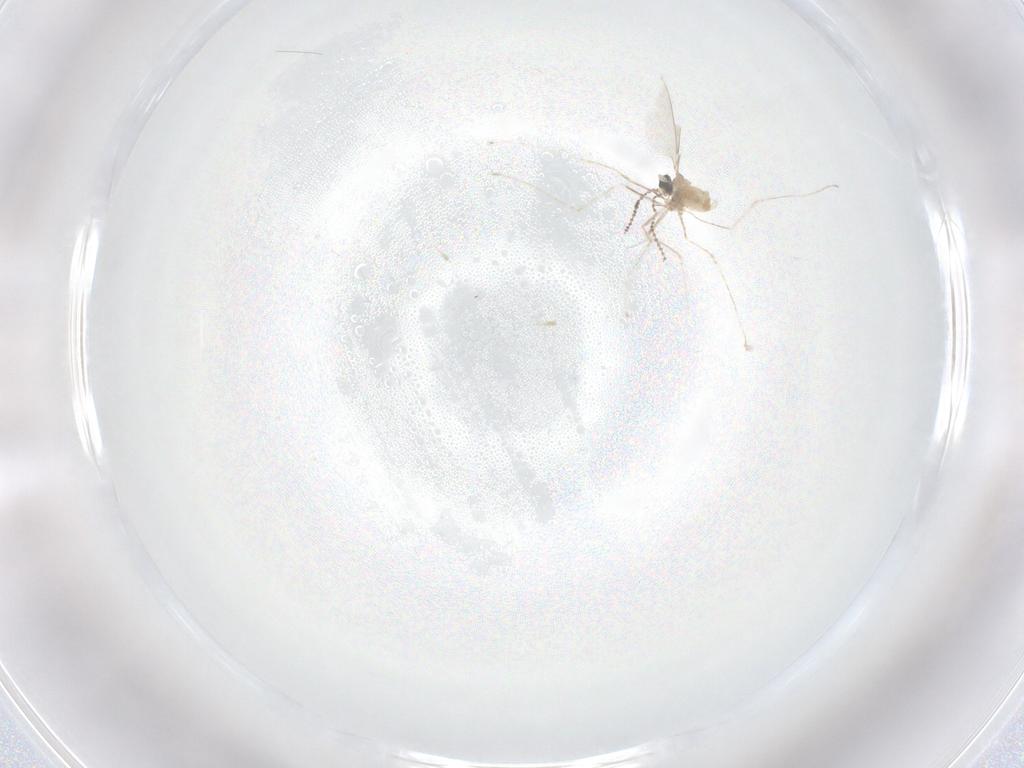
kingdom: Animalia
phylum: Arthropoda
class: Insecta
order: Diptera
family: Cecidomyiidae
